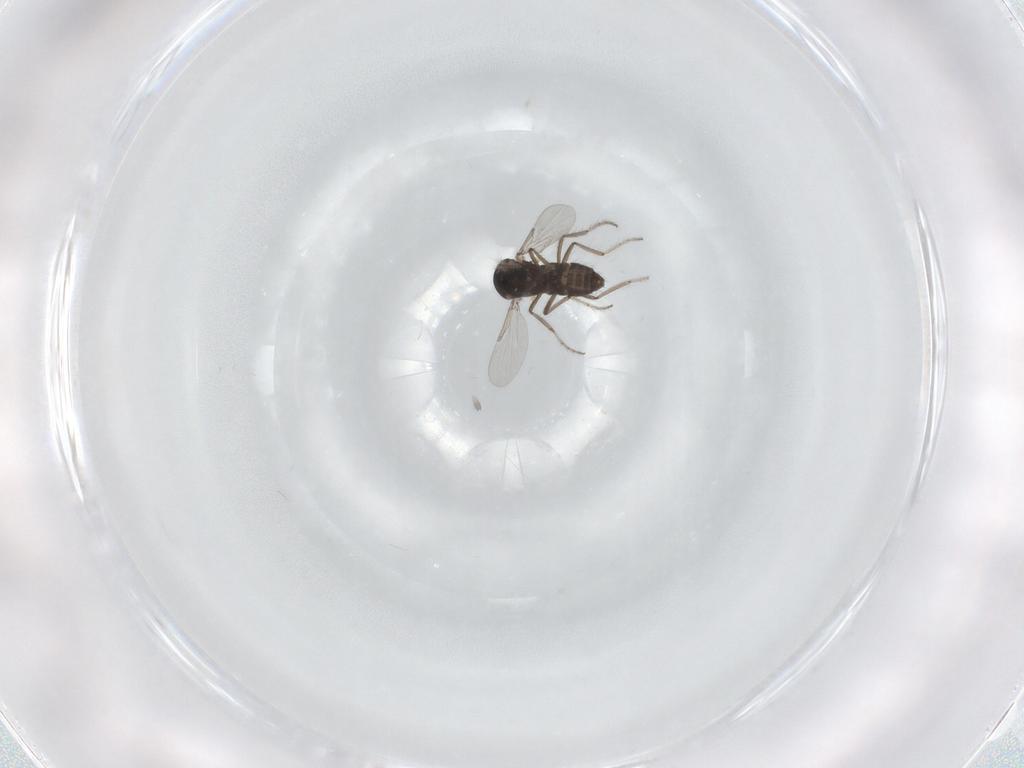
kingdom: Animalia
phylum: Arthropoda
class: Insecta
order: Diptera
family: Ceratopogonidae
